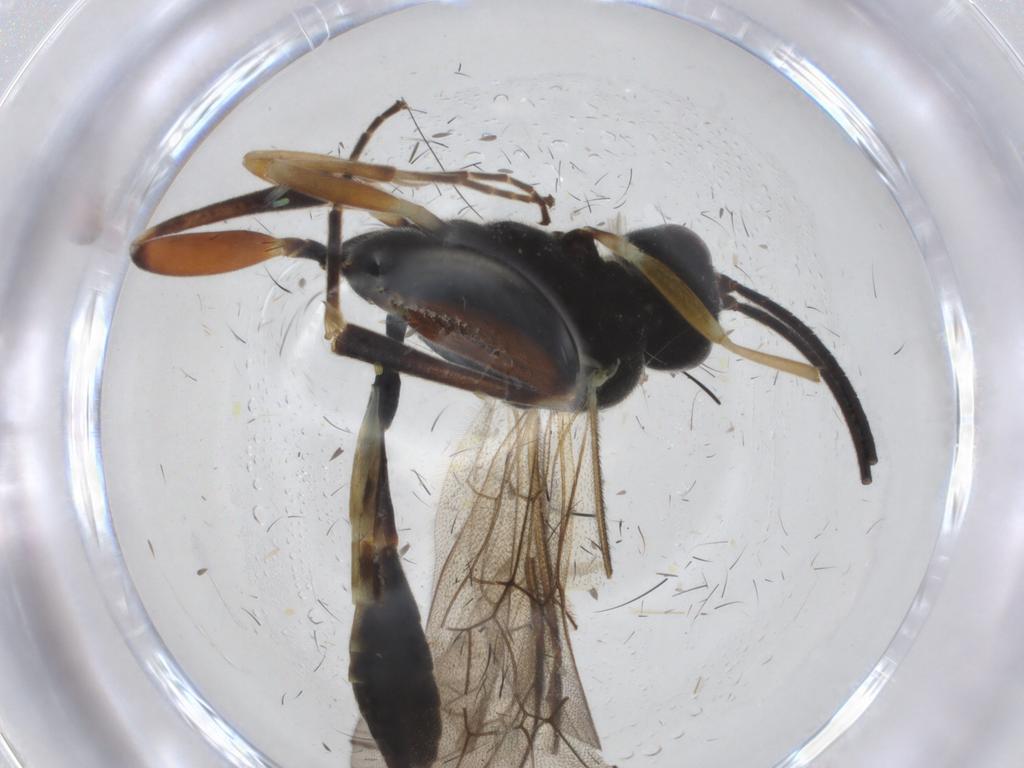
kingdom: Animalia
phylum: Arthropoda
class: Insecta
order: Hymenoptera
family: Ichneumonidae
